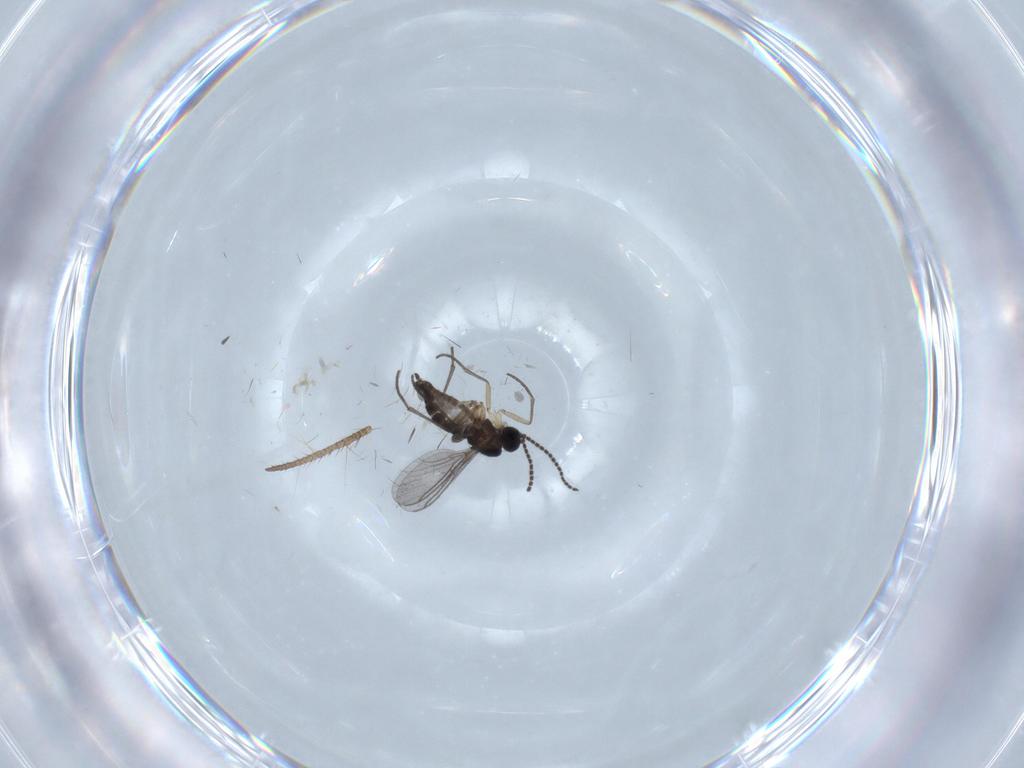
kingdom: Animalia
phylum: Arthropoda
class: Insecta
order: Diptera
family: Sciaridae
